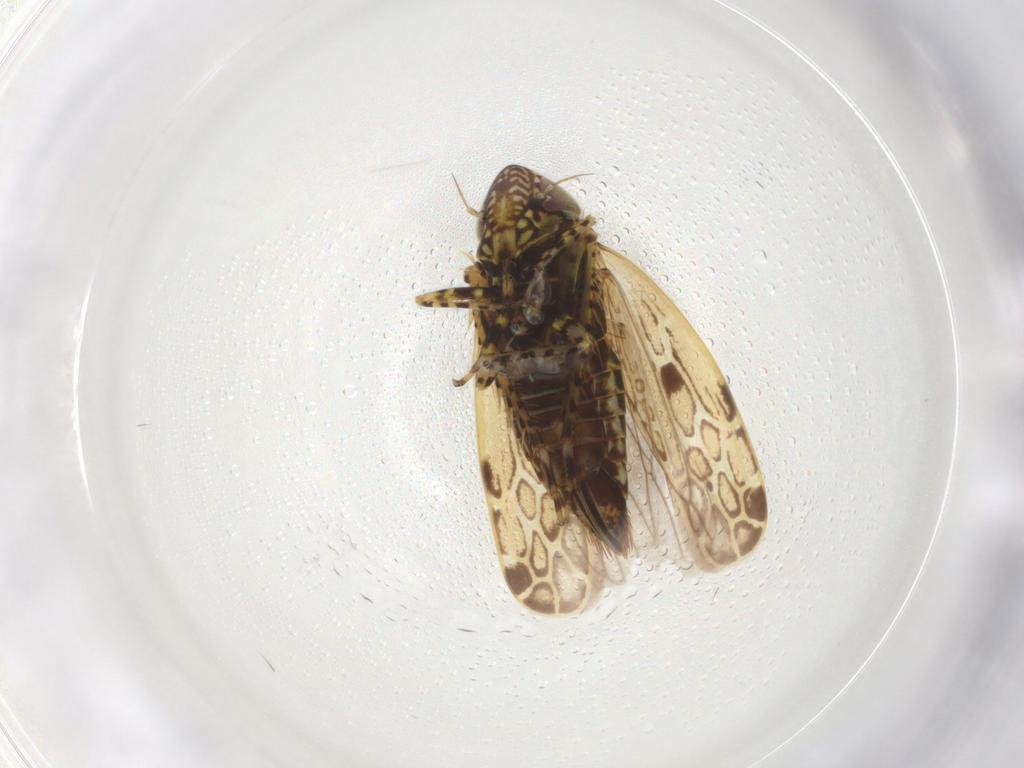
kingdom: Animalia
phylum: Arthropoda
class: Insecta
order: Hemiptera
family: Cicadellidae
